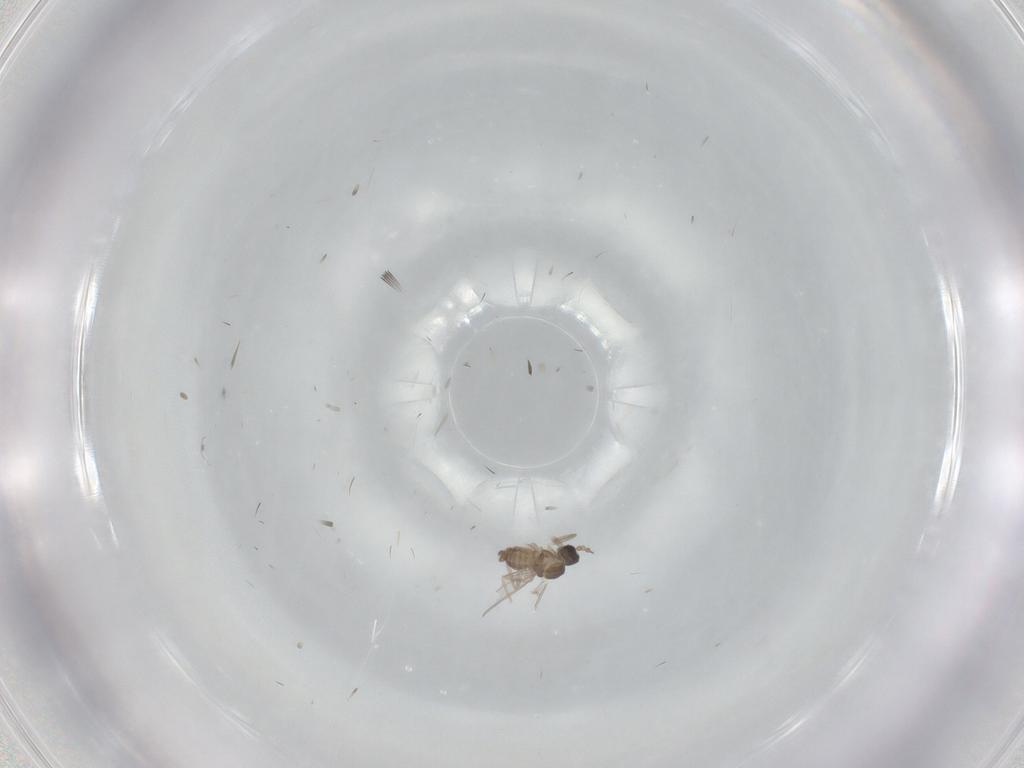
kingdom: Animalia
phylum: Arthropoda
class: Insecta
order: Diptera
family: Cecidomyiidae
